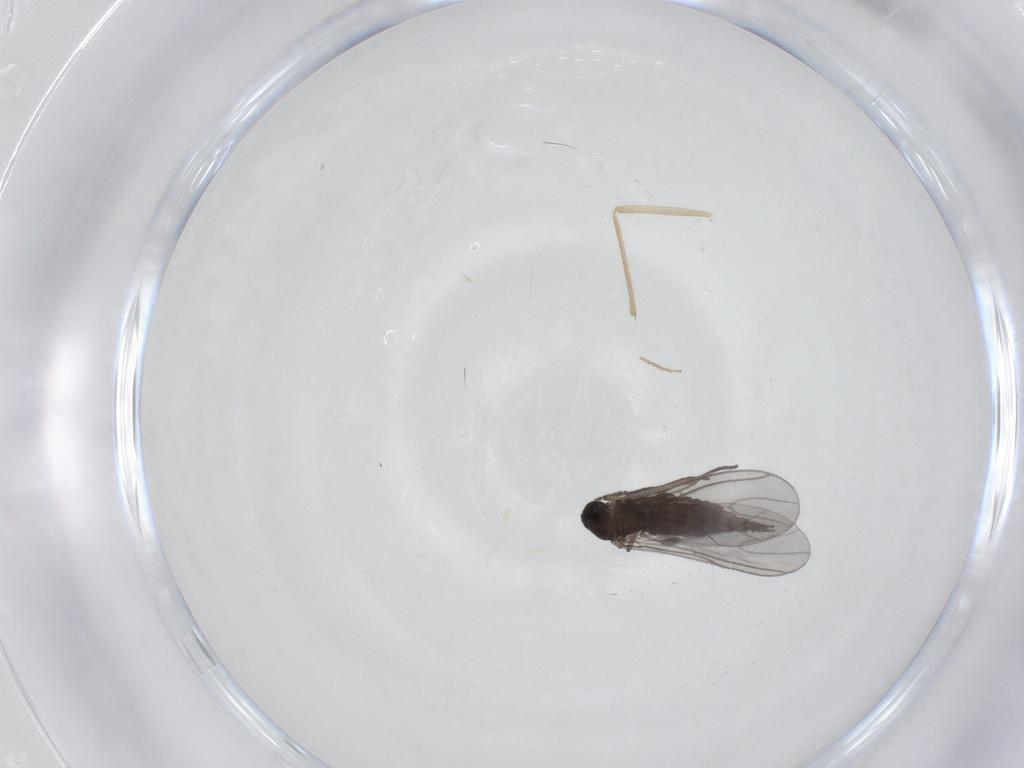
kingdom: Animalia
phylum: Arthropoda
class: Insecta
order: Diptera
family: Sciaridae
